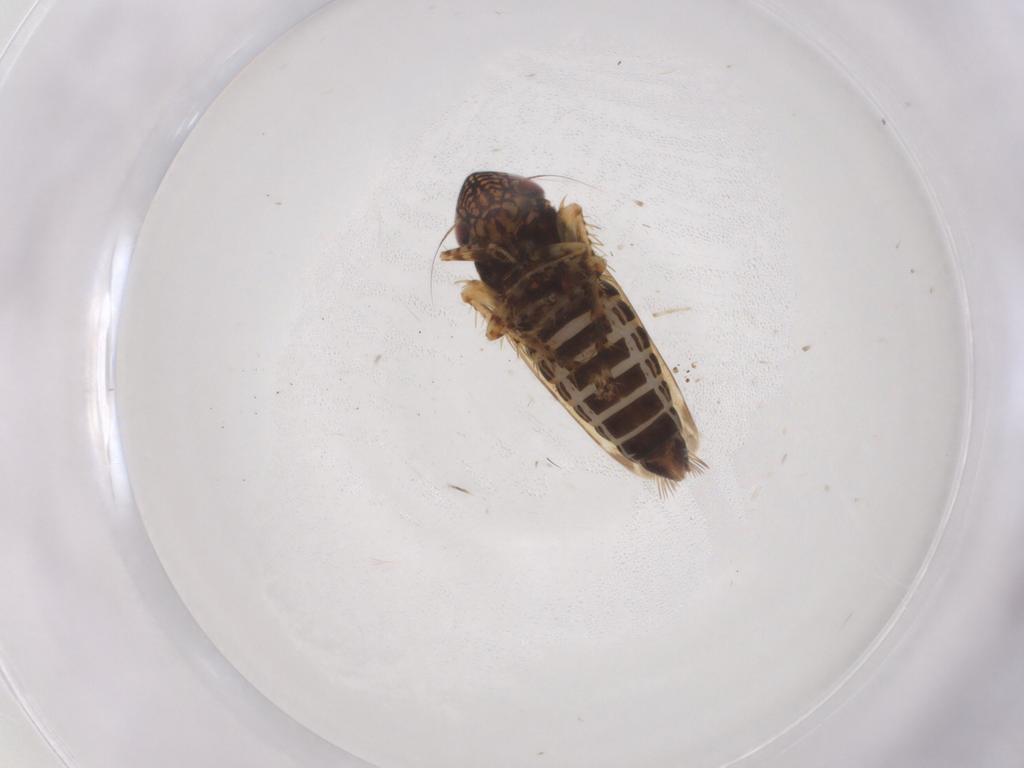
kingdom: Animalia
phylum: Arthropoda
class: Insecta
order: Hemiptera
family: Cicadellidae
